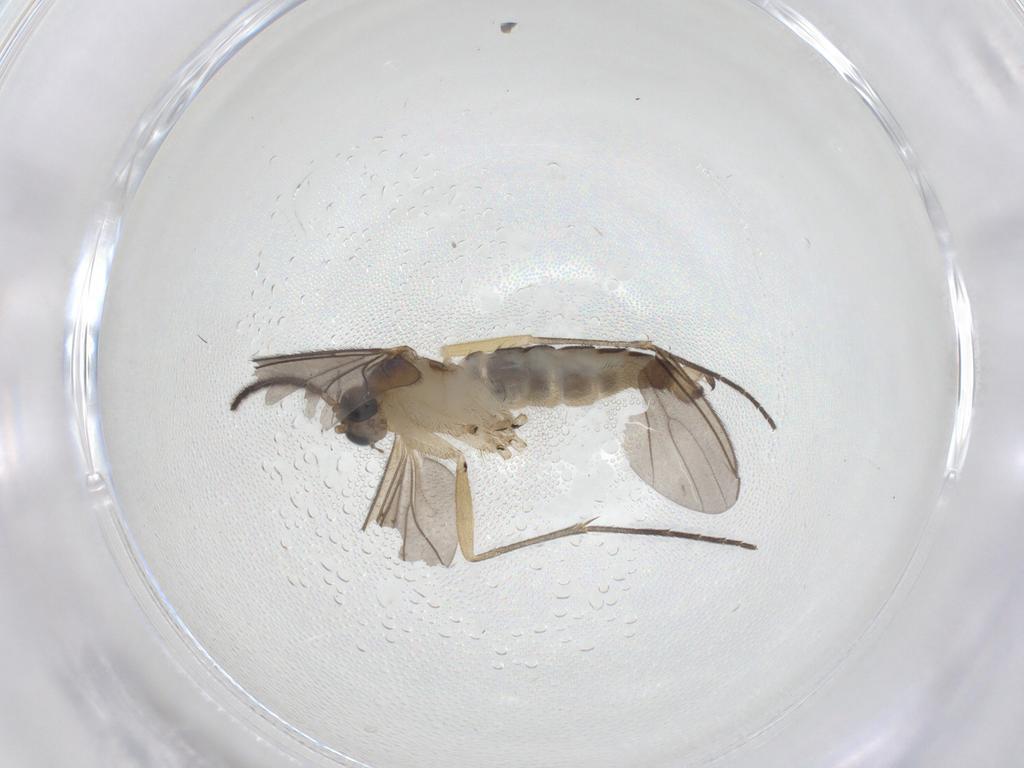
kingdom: Animalia
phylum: Arthropoda
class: Insecta
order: Diptera
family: Sciaridae
